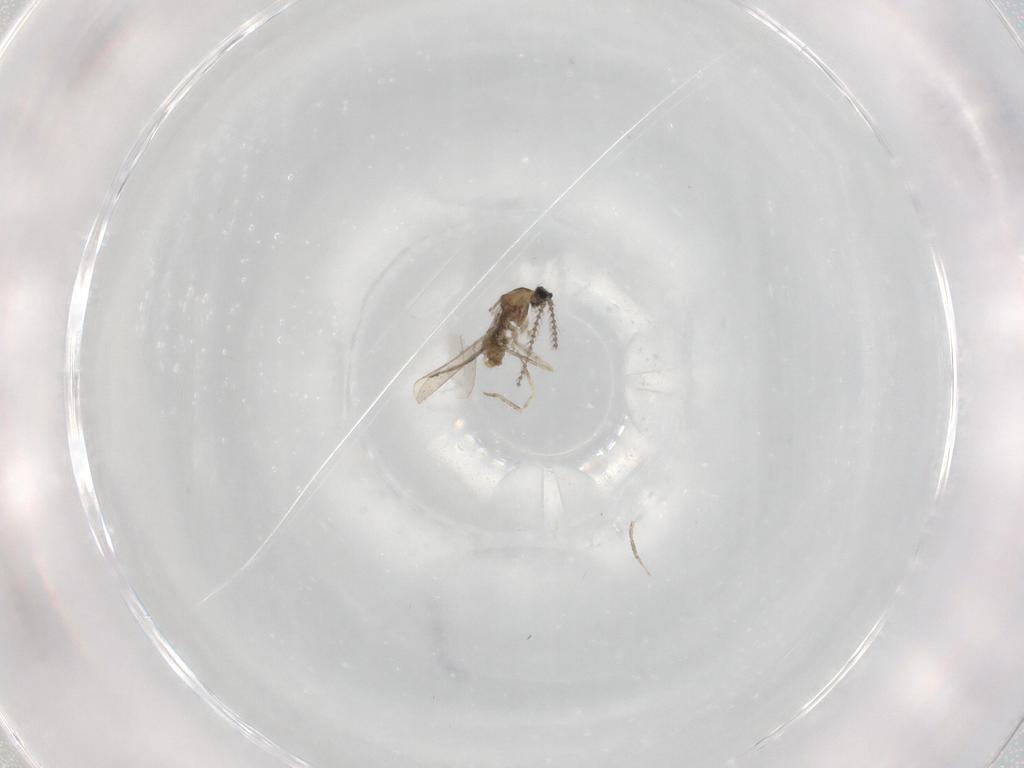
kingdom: Animalia
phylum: Arthropoda
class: Insecta
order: Diptera
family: Cecidomyiidae
